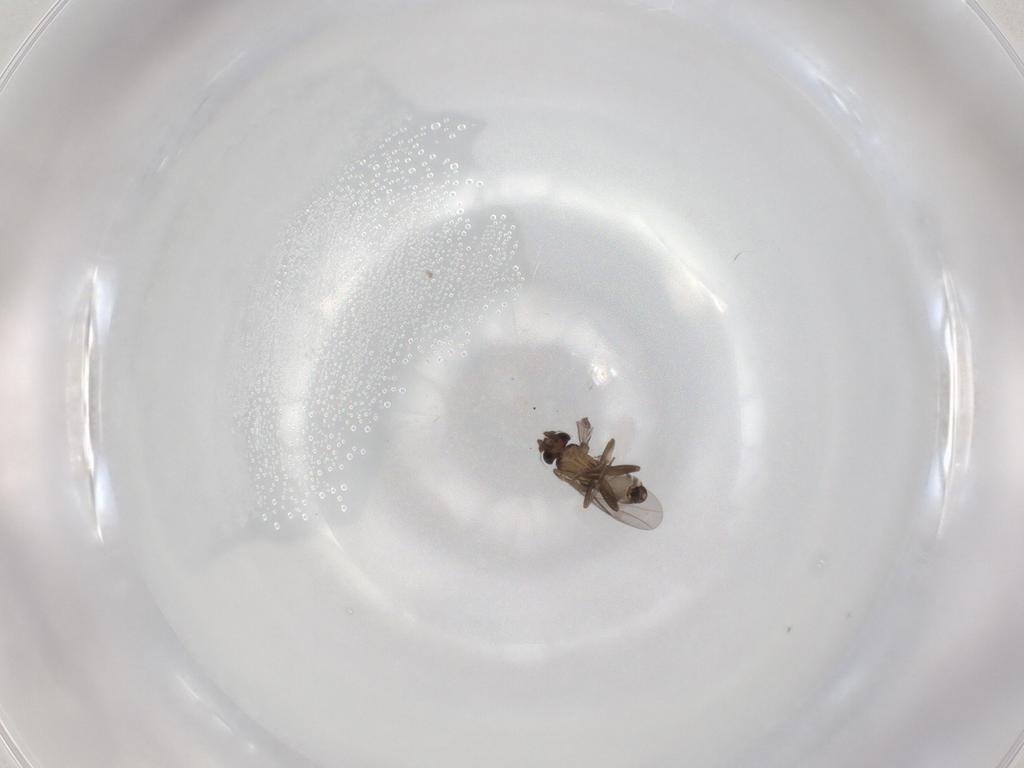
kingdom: Animalia
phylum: Arthropoda
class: Insecta
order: Diptera
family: Phoridae
